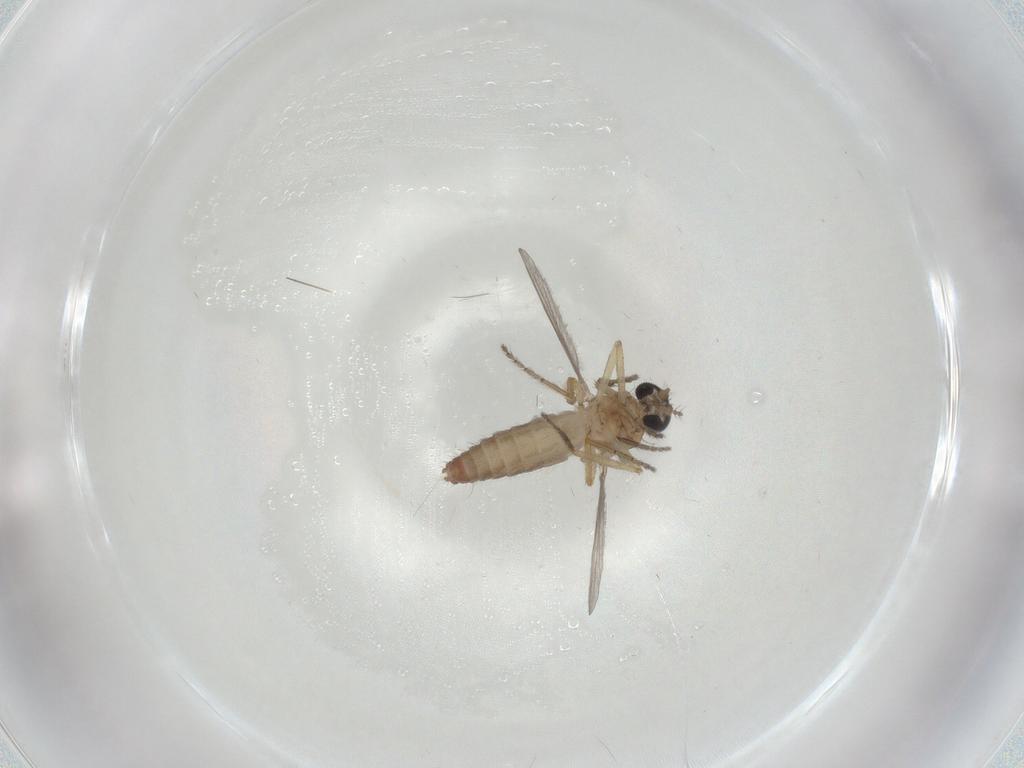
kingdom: Animalia
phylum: Arthropoda
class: Insecta
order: Diptera
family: Ceratopogonidae
